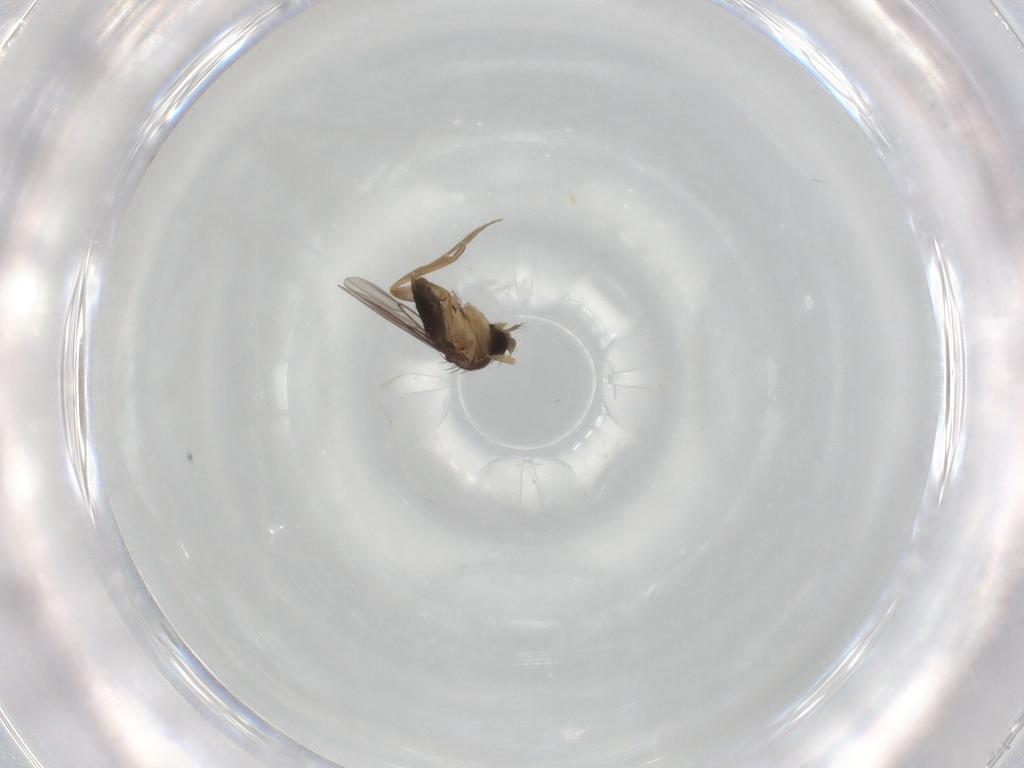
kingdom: Animalia
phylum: Arthropoda
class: Insecta
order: Diptera
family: Phoridae
